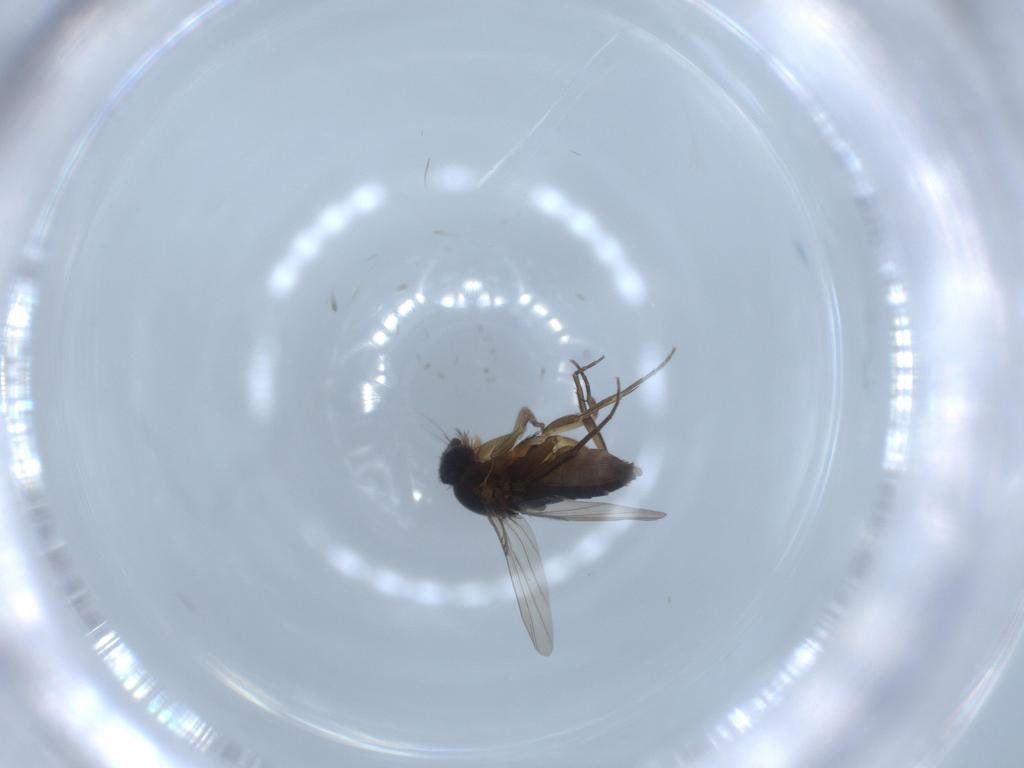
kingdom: Animalia
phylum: Arthropoda
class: Insecta
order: Diptera
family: Phoridae
